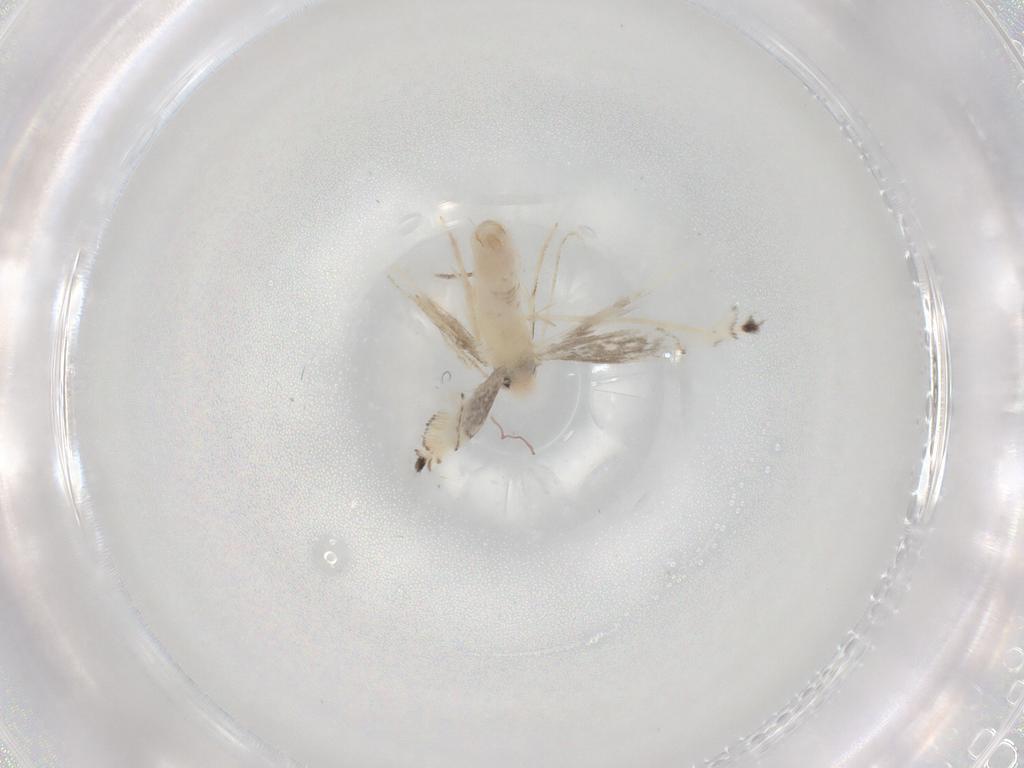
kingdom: Animalia
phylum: Arthropoda
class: Insecta
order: Lepidoptera
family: Gracillariidae
